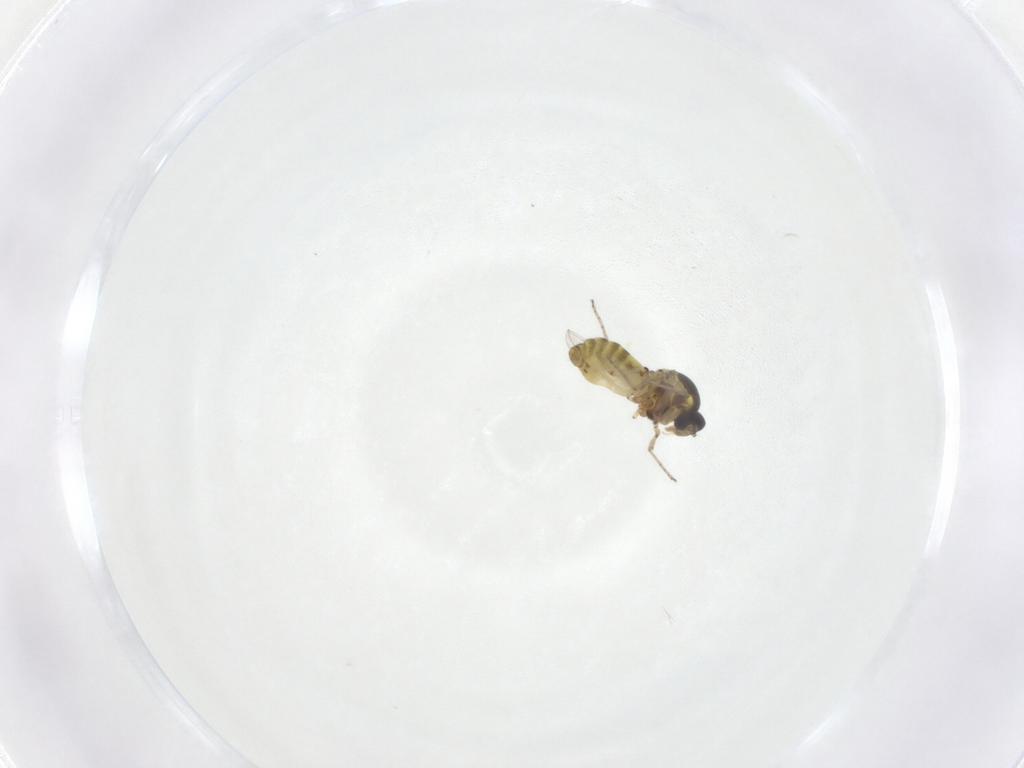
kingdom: Animalia
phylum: Arthropoda
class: Insecta
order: Diptera
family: Ceratopogonidae
